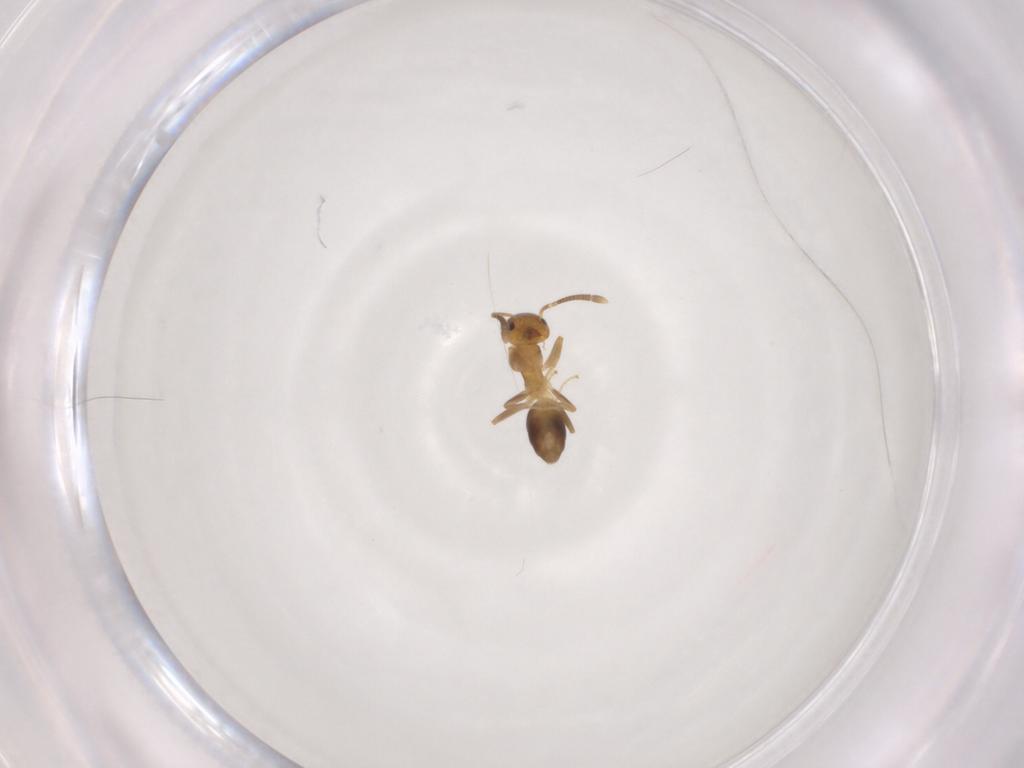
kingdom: Animalia
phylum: Arthropoda
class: Insecta
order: Hymenoptera
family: Formicidae
